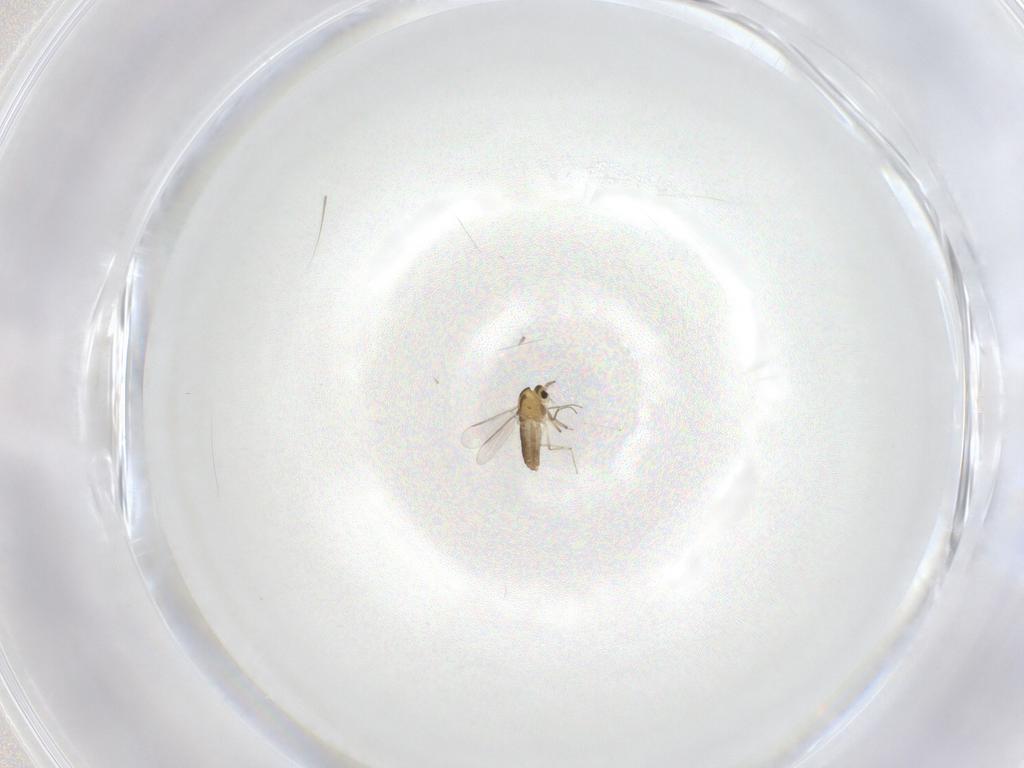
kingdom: Animalia
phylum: Arthropoda
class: Insecta
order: Diptera
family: Chironomidae
